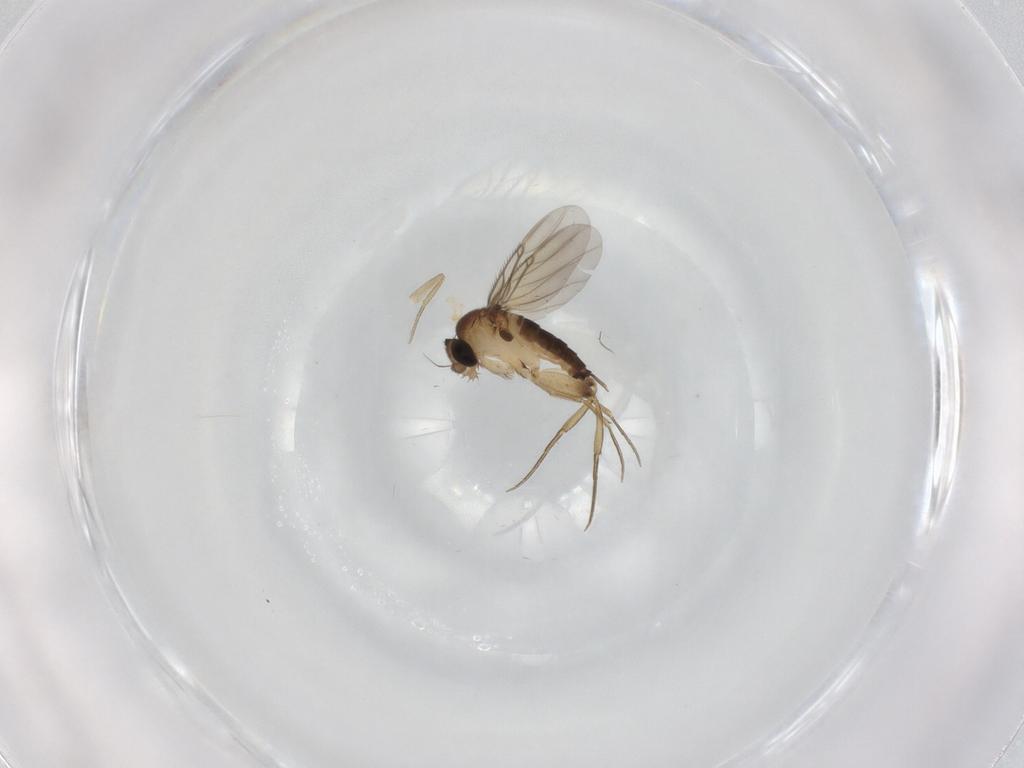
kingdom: Animalia
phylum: Arthropoda
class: Insecta
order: Diptera
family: Phoridae
